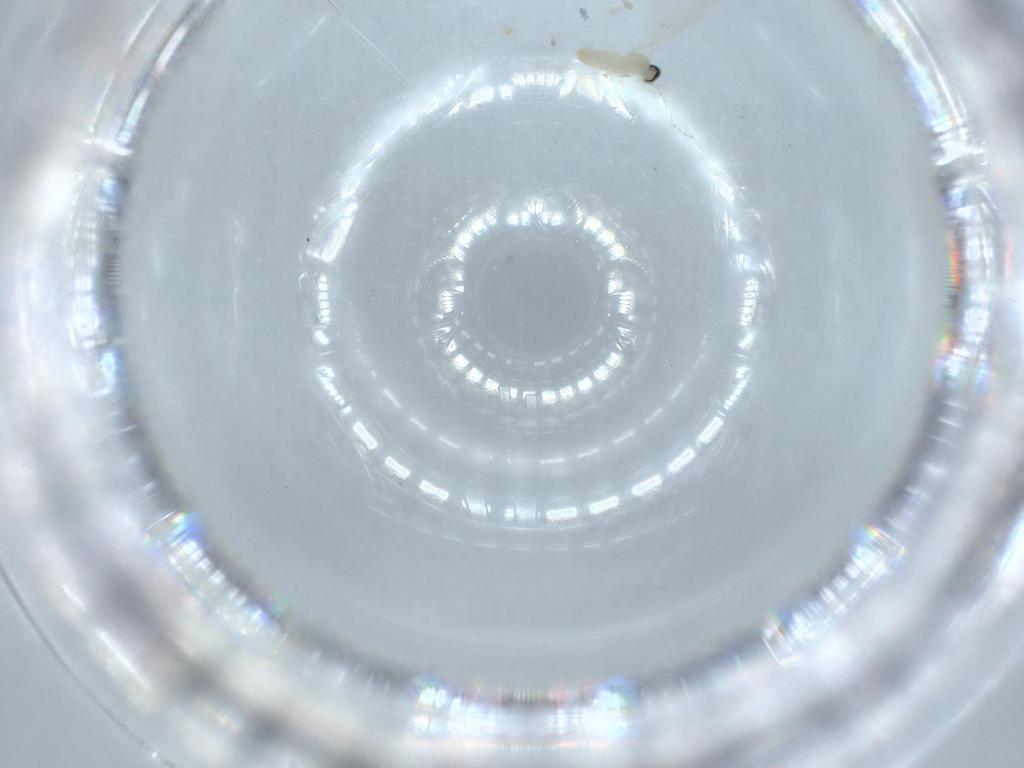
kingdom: Animalia
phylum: Arthropoda
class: Insecta
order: Diptera
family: Cecidomyiidae
